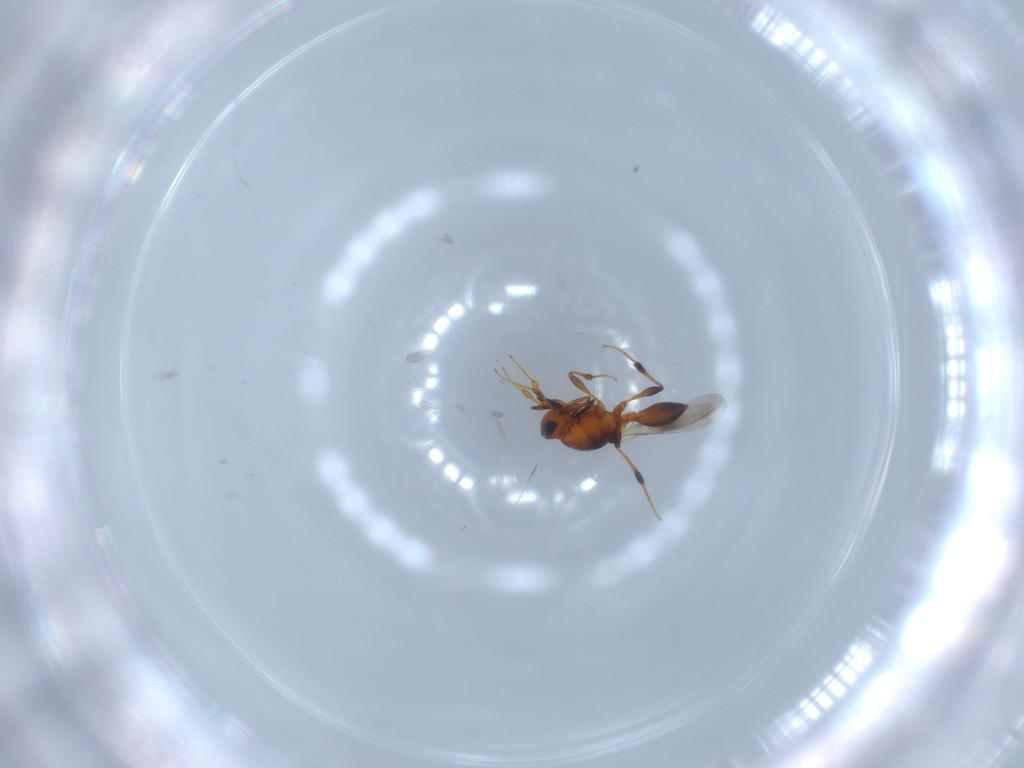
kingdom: Animalia
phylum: Arthropoda
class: Insecta
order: Hymenoptera
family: Platygastridae
